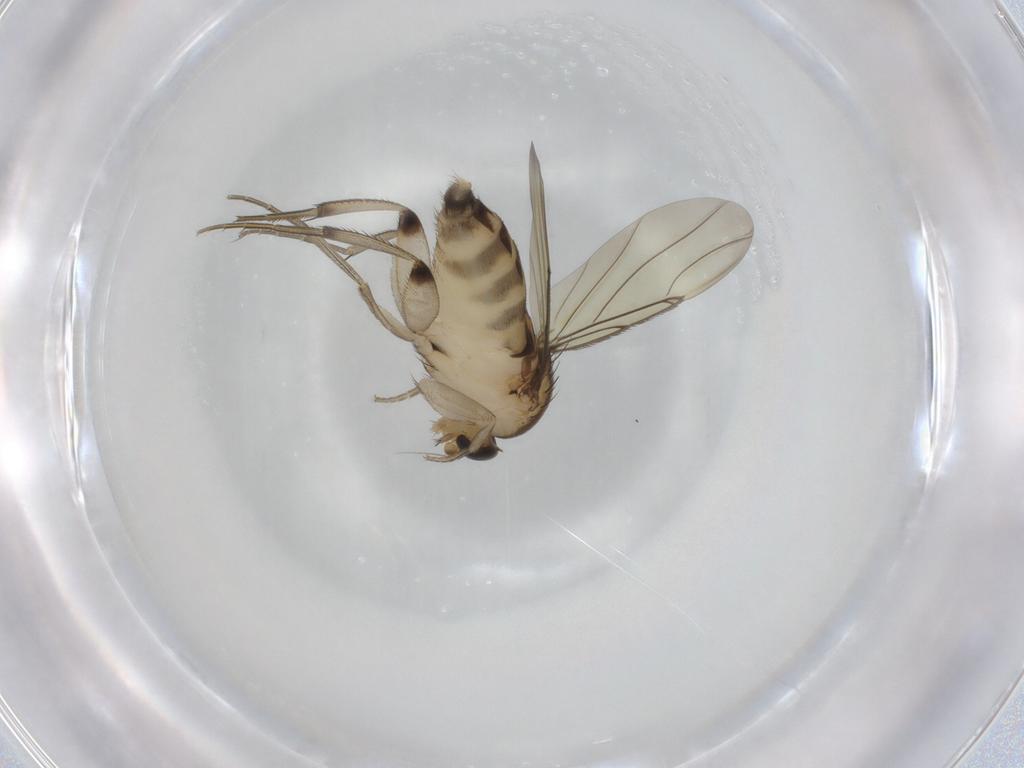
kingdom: Animalia
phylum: Arthropoda
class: Insecta
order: Diptera
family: Phoridae
